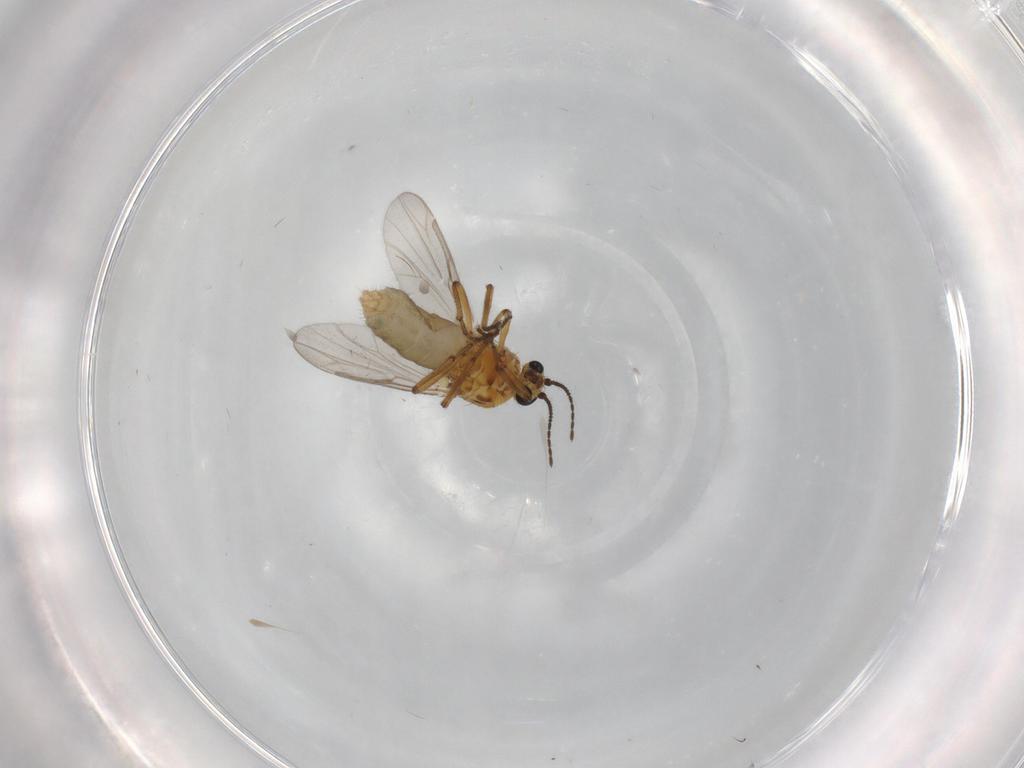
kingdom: Animalia
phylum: Arthropoda
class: Insecta
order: Diptera
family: Ceratopogonidae
